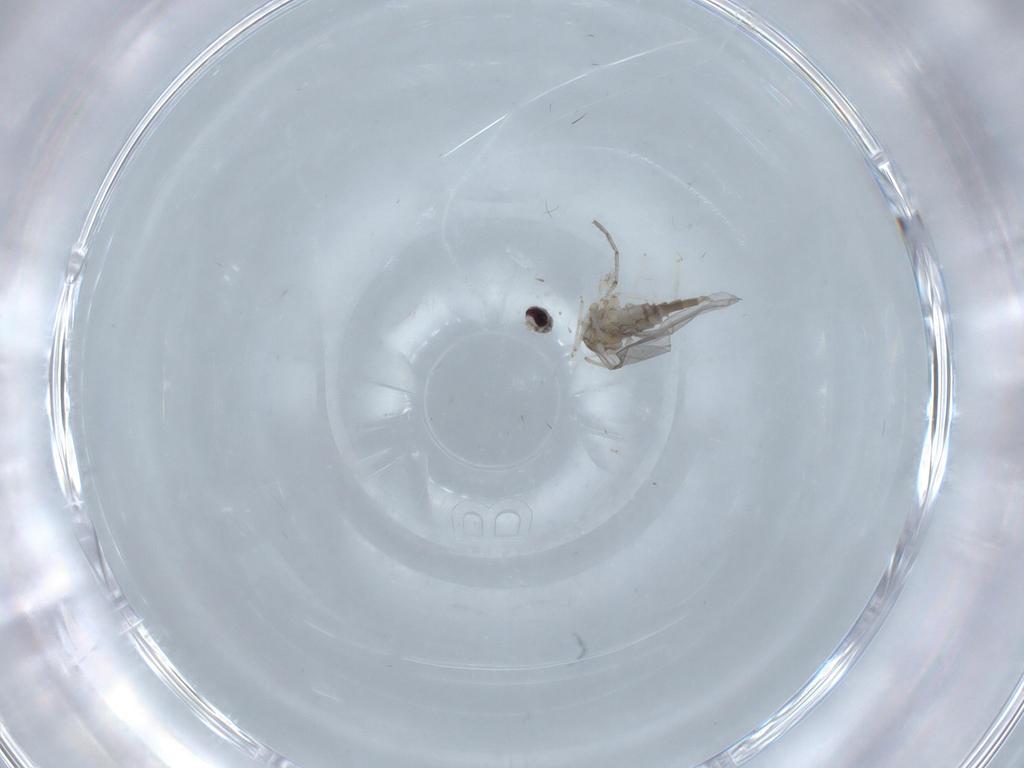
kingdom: Animalia
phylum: Arthropoda
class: Insecta
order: Diptera
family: Cecidomyiidae
